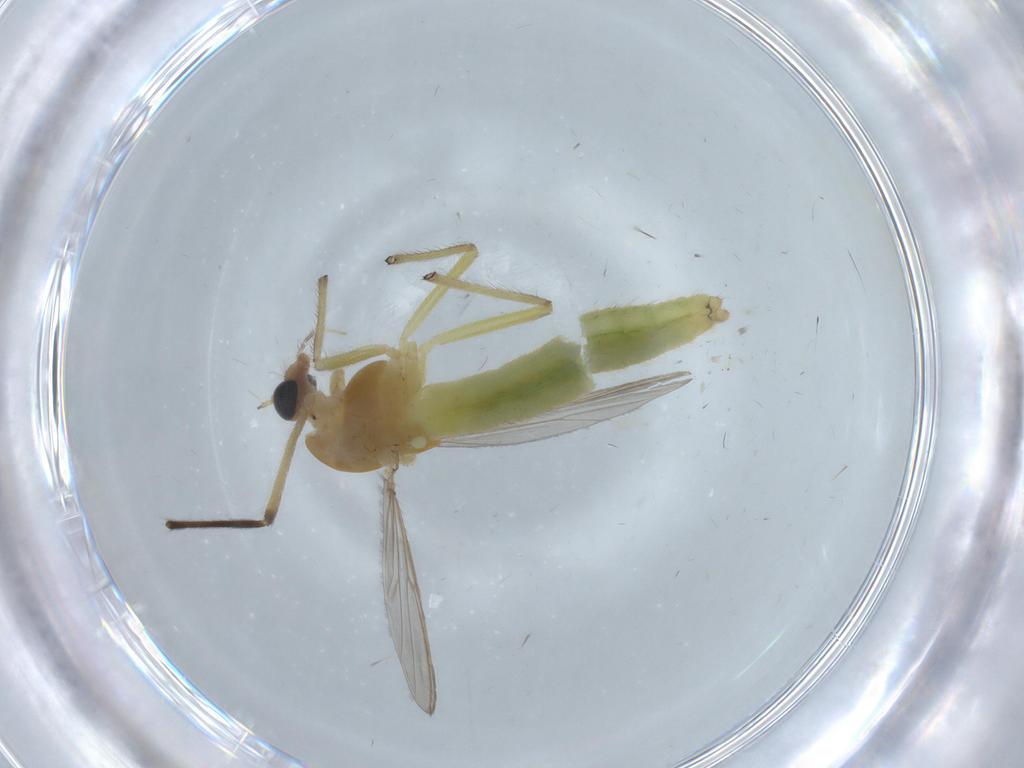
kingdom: Animalia
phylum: Arthropoda
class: Insecta
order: Diptera
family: Chironomidae
